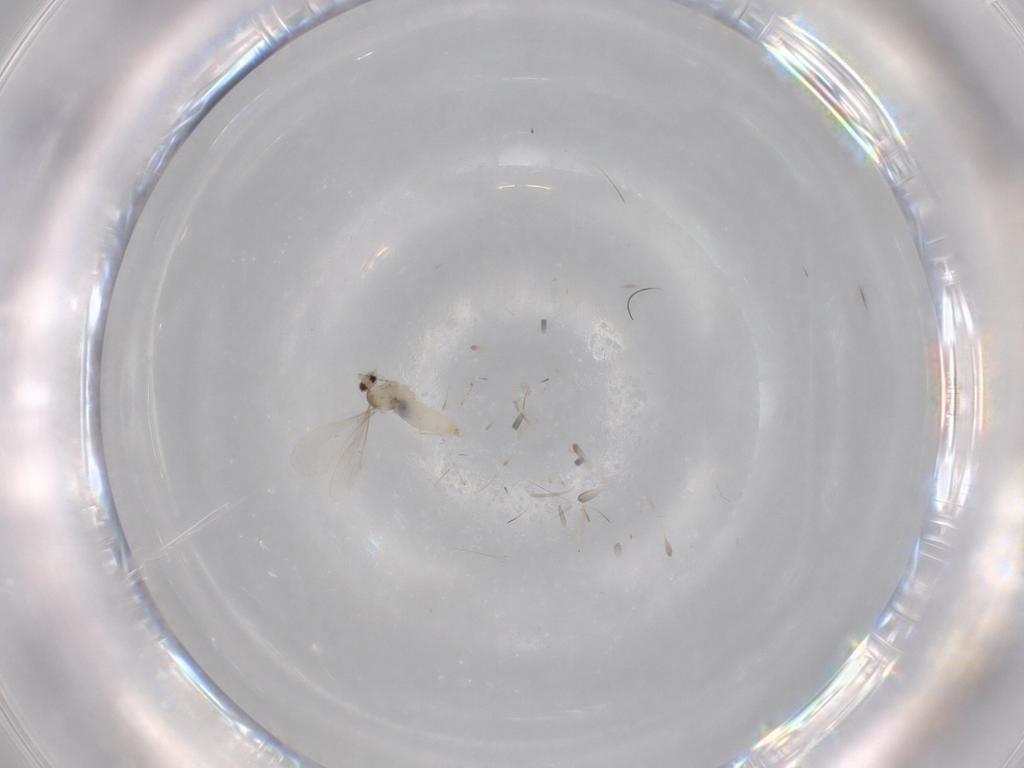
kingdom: Animalia
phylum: Arthropoda
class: Insecta
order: Diptera
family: Cecidomyiidae
